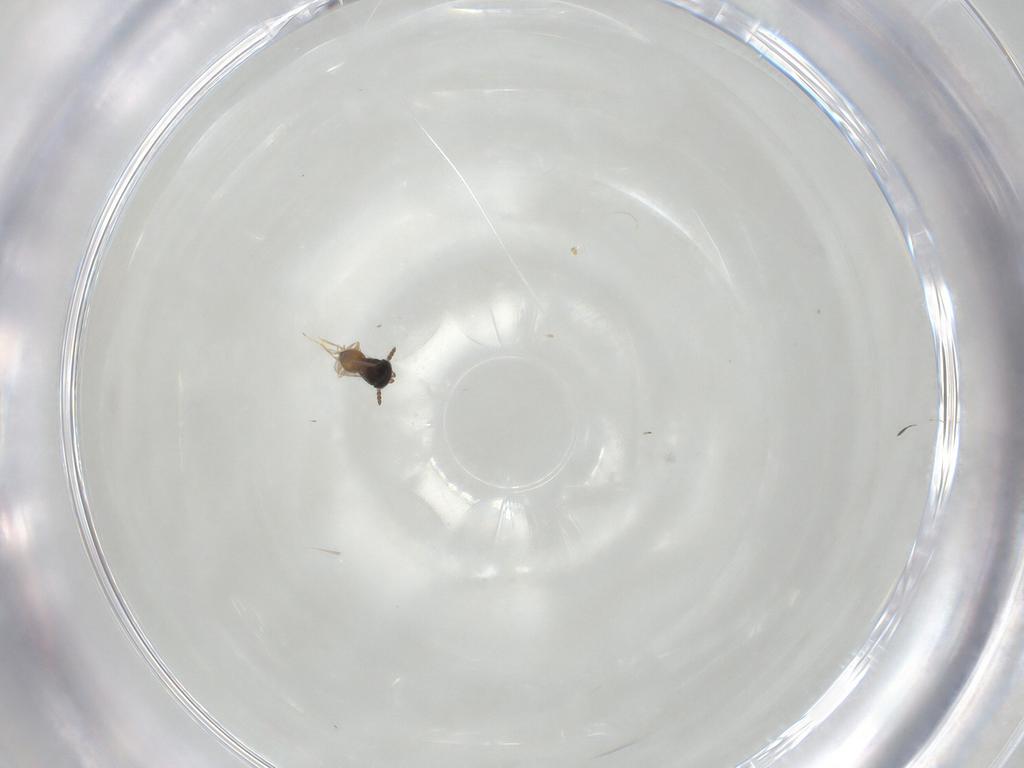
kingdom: Animalia
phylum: Arthropoda
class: Insecta
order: Hymenoptera
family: Scelionidae
